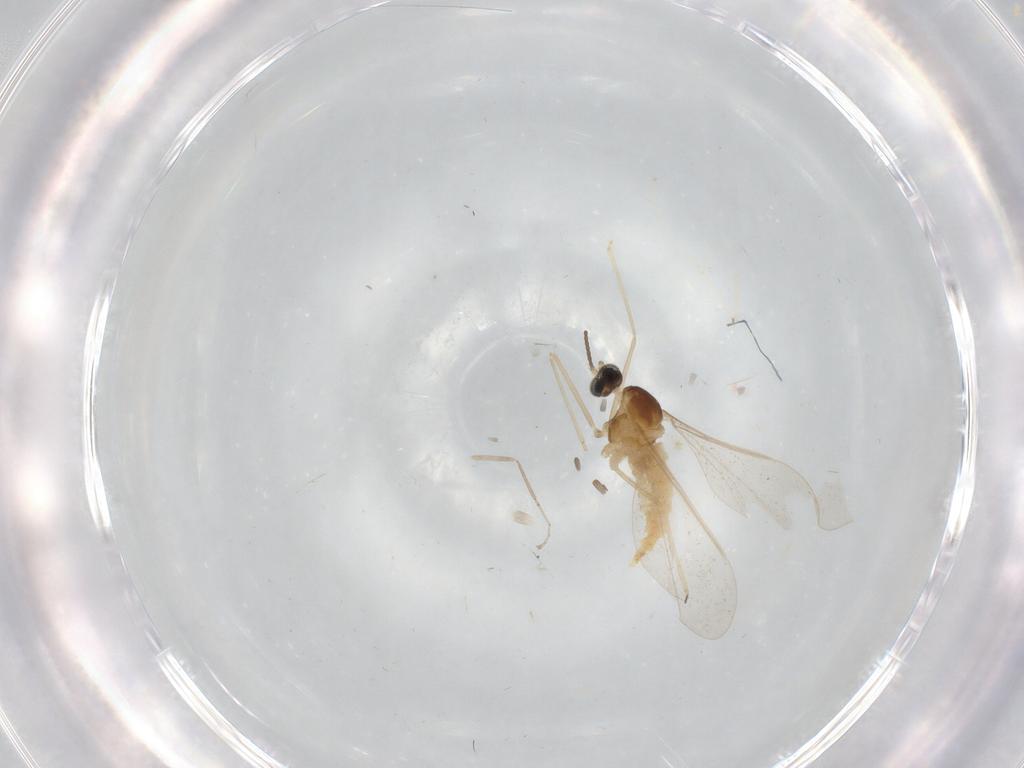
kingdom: Animalia
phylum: Arthropoda
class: Insecta
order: Diptera
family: Cecidomyiidae
